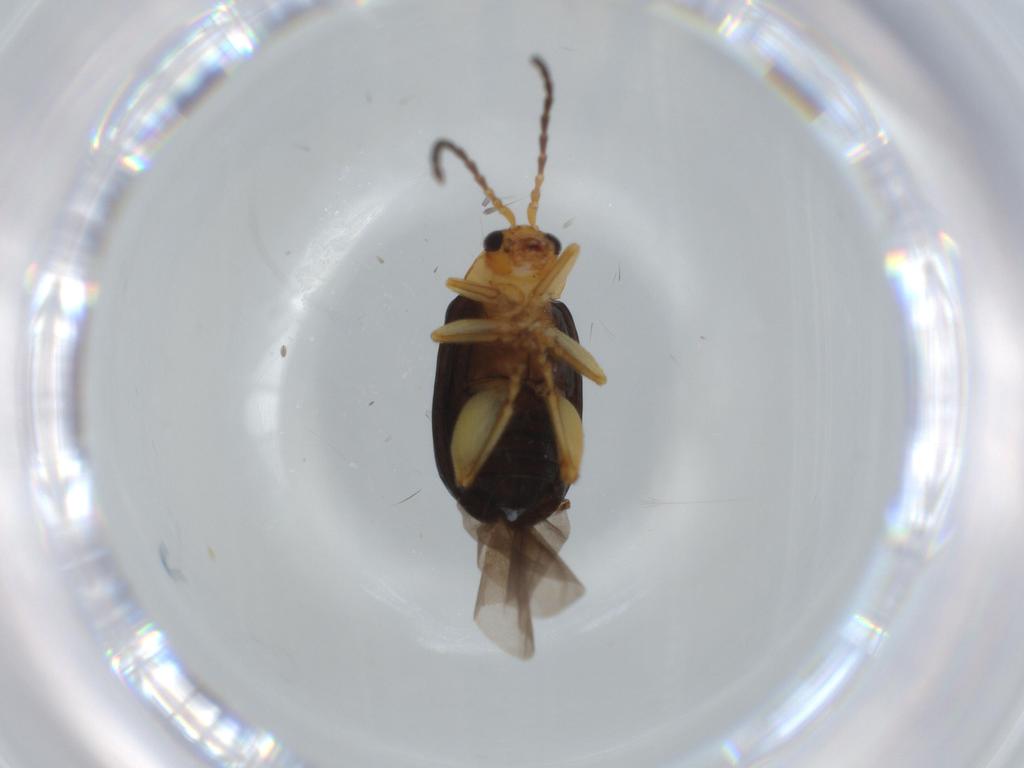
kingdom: Animalia
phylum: Arthropoda
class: Insecta
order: Coleoptera
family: Chrysomelidae
